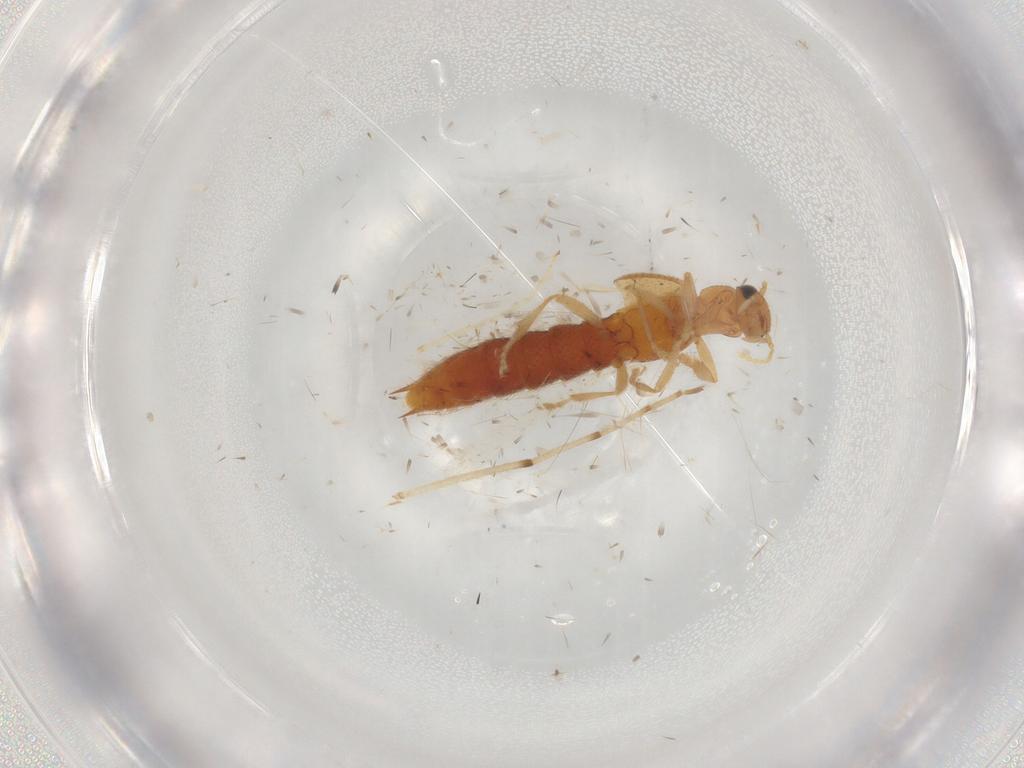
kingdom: Animalia
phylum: Arthropoda
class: Insecta
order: Coleoptera
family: Staphylinidae
